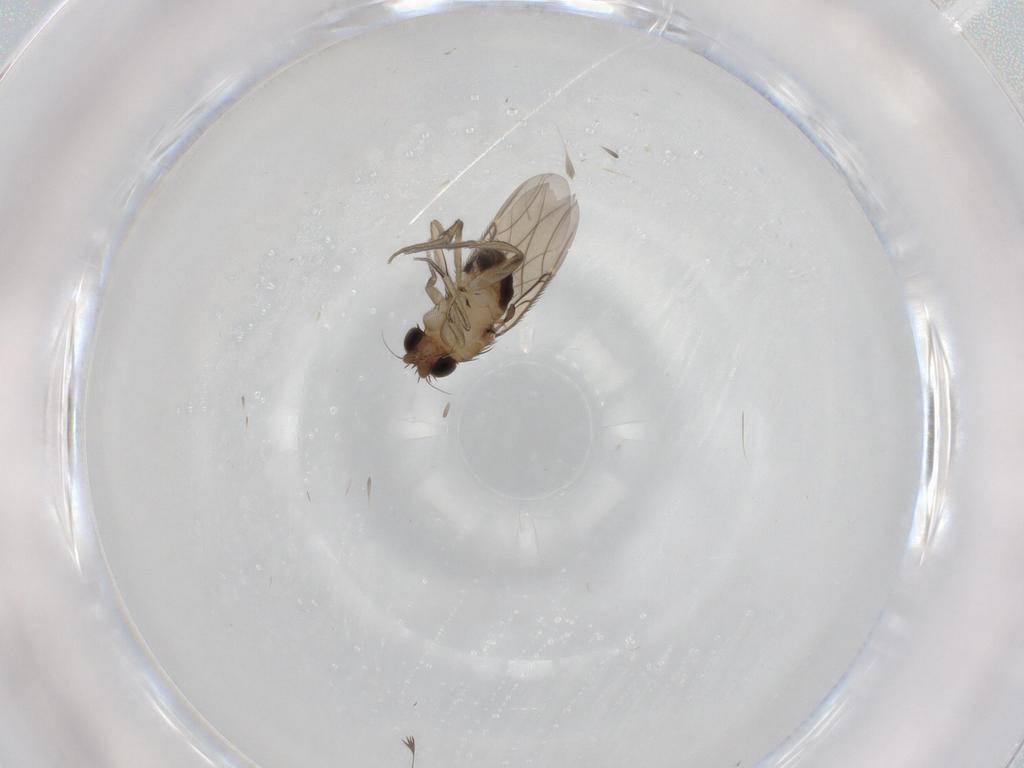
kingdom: Animalia
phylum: Arthropoda
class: Insecta
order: Diptera
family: Phoridae
